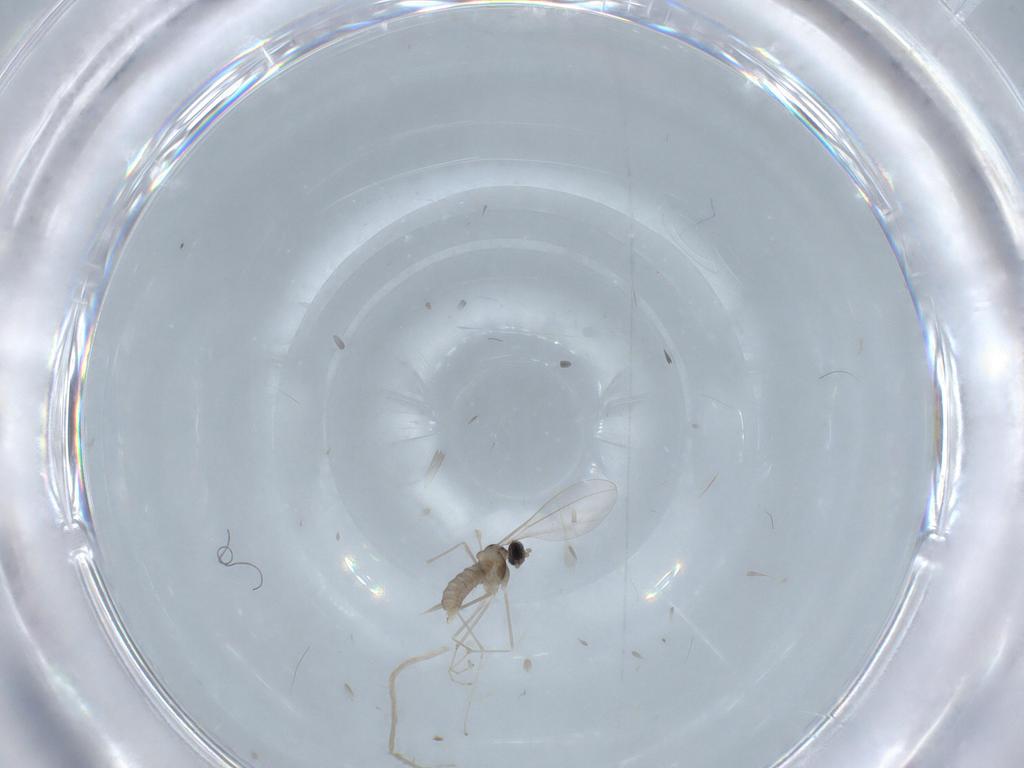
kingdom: Animalia
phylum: Arthropoda
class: Insecta
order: Diptera
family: Cecidomyiidae
